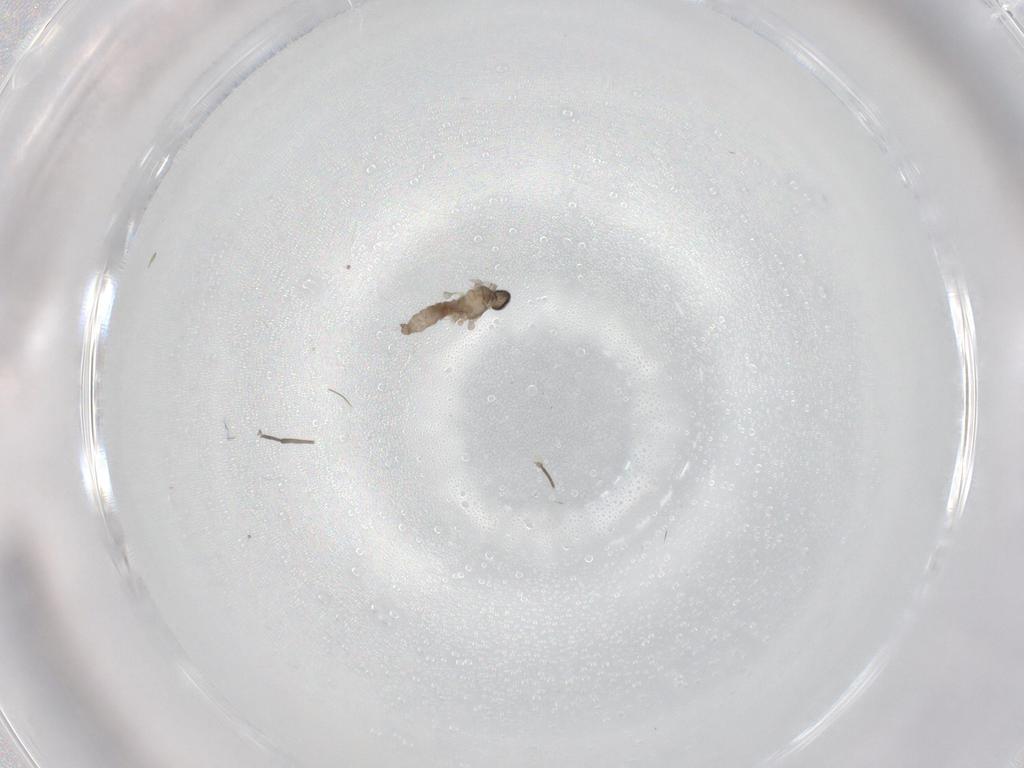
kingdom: Animalia
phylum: Arthropoda
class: Insecta
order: Diptera
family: Cecidomyiidae
